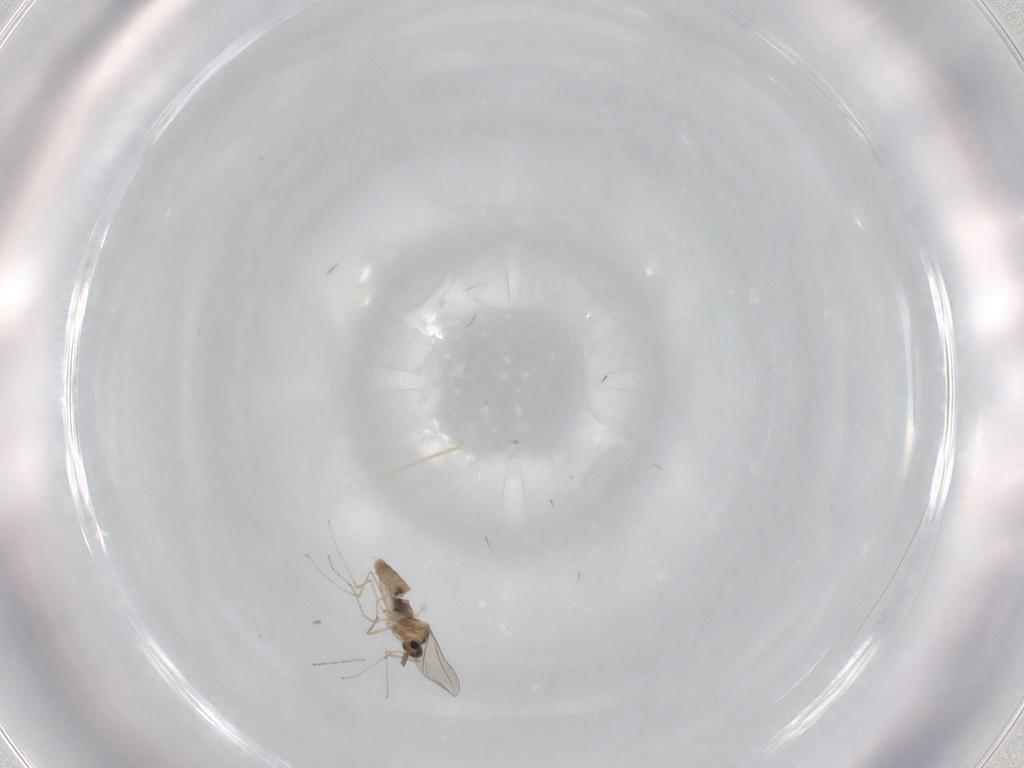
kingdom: Animalia
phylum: Arthropoda
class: Insecta
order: Diptera
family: Cecidomyiidae
